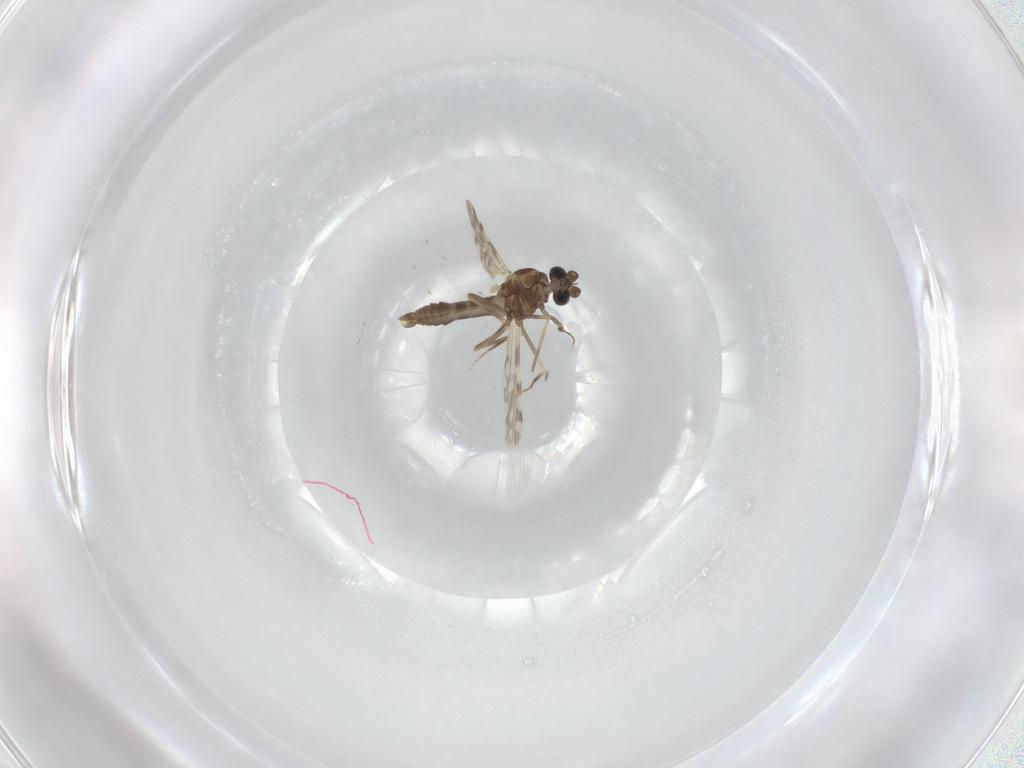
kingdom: Animalia
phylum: Arthropoda
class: Insecta
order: Diptera
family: Ceratopogonidae
